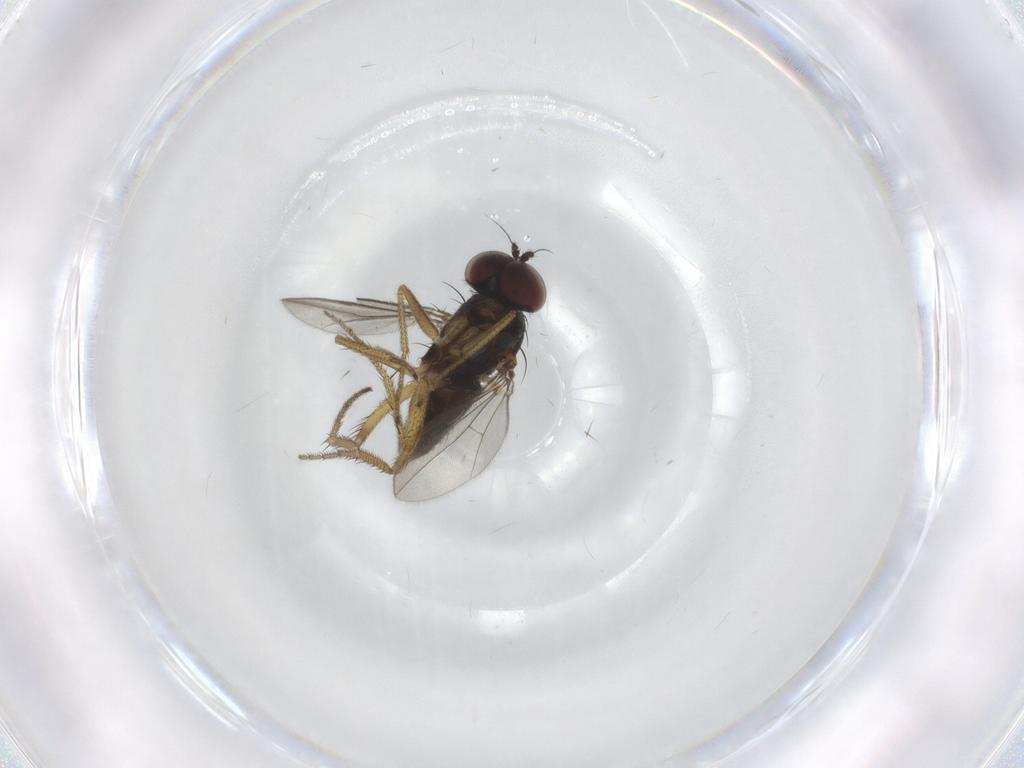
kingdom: Animalia
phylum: Arthropoda
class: Insecta
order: Diptera
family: Dolichopodidae
